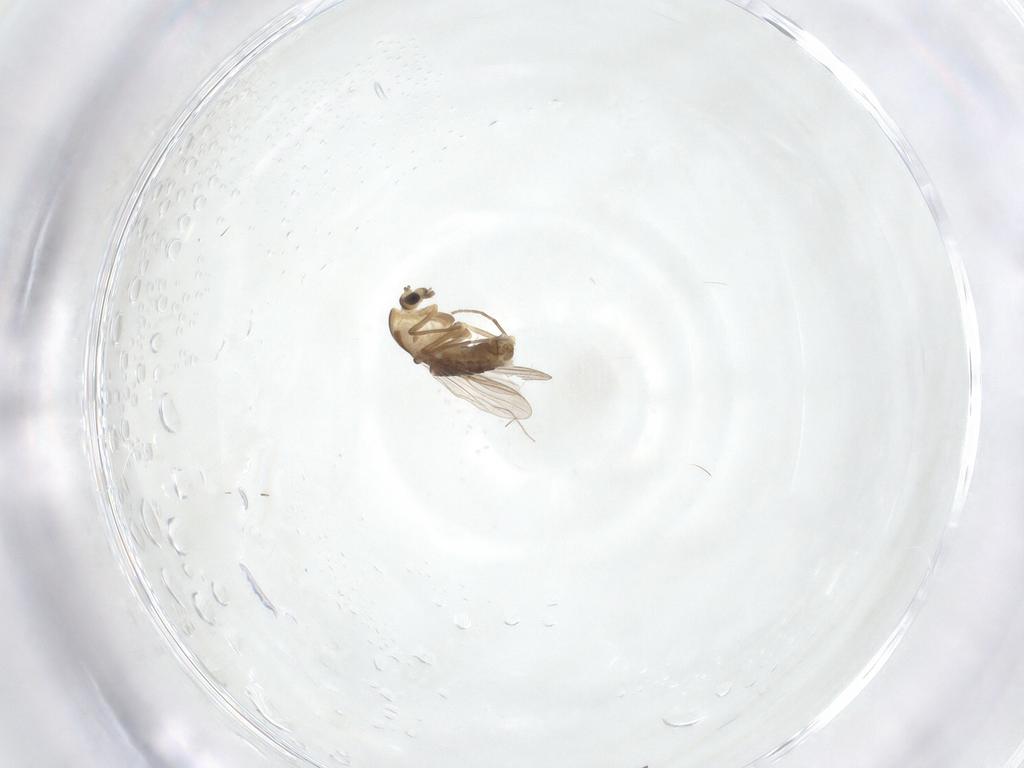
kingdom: Animalia
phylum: Arthropoda
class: Insecta
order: Diptera
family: Chironomidae
